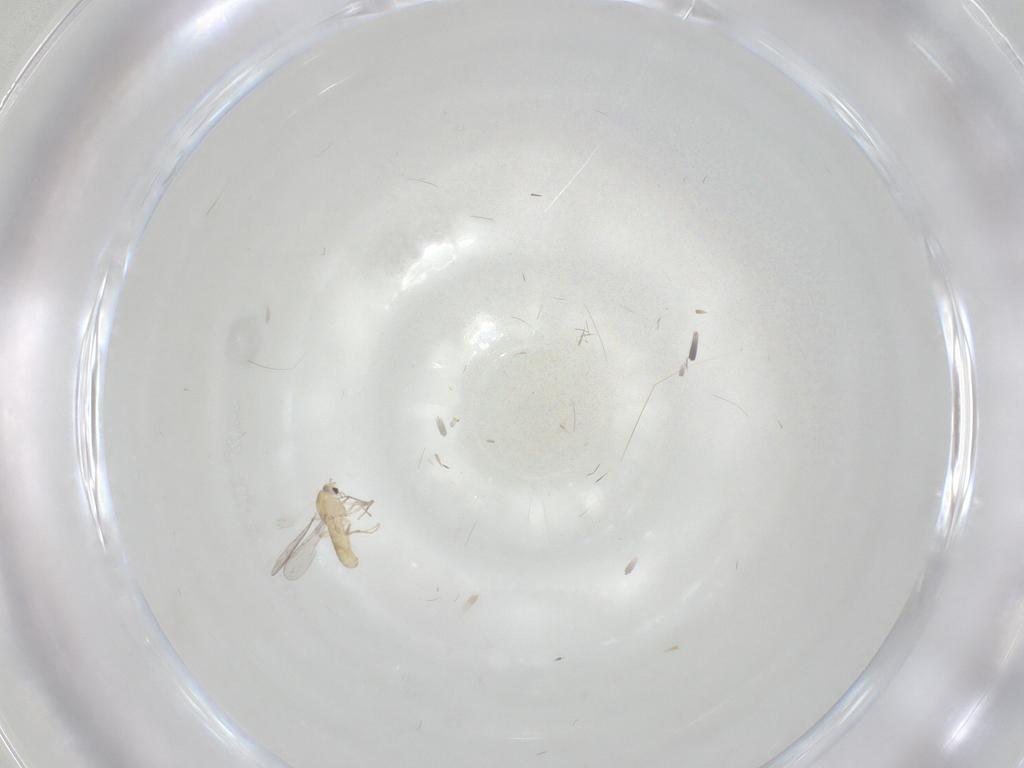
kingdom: Animalia
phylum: Arthropoda
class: Insecta
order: Diptera
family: Chironomidae
